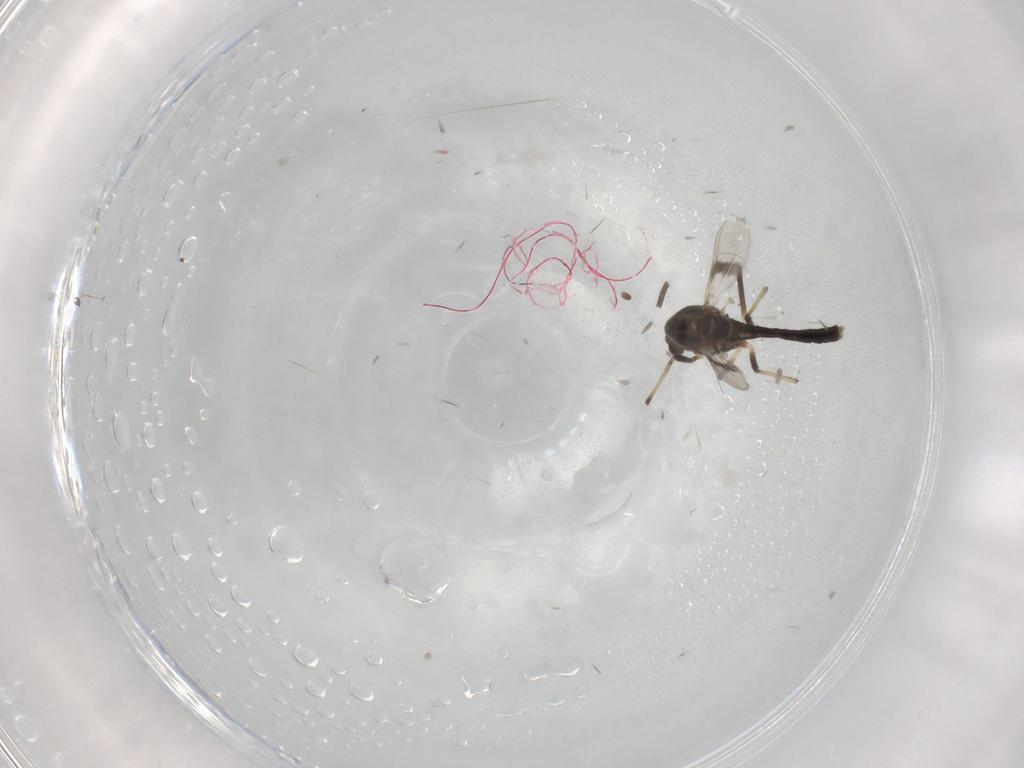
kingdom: Animalia
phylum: Arthropoda
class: Insecta
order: Diptera
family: Chironomidae
